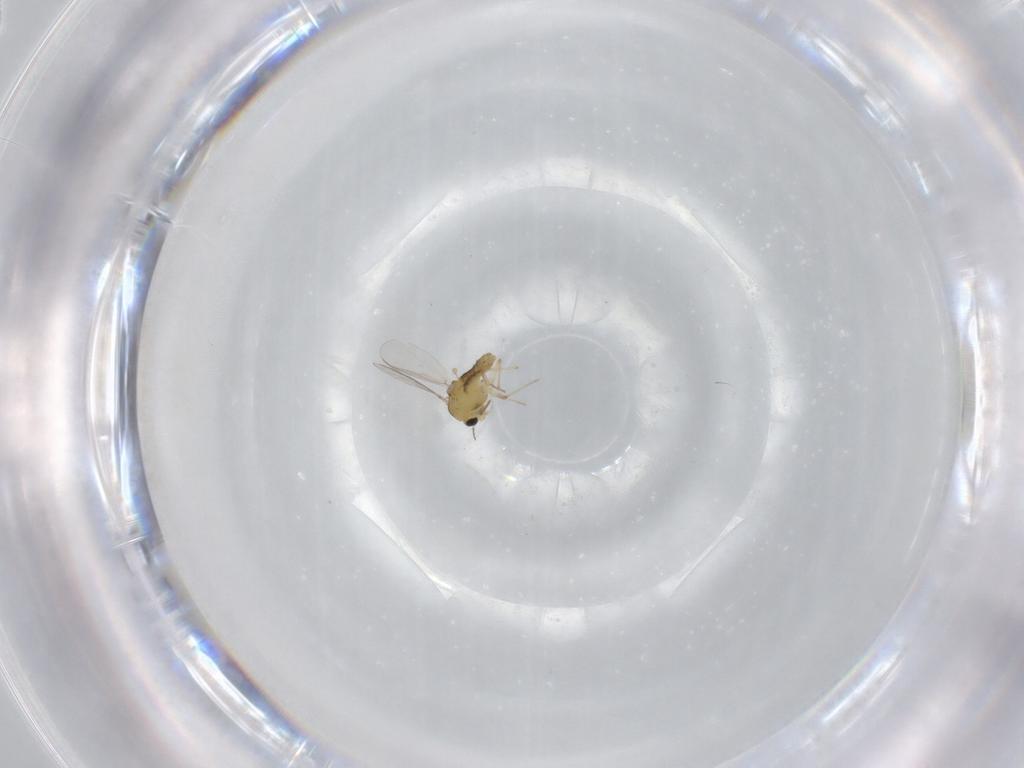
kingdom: Animalia
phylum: Arthropoda
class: Insecta
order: Diptera
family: Chironomidae
